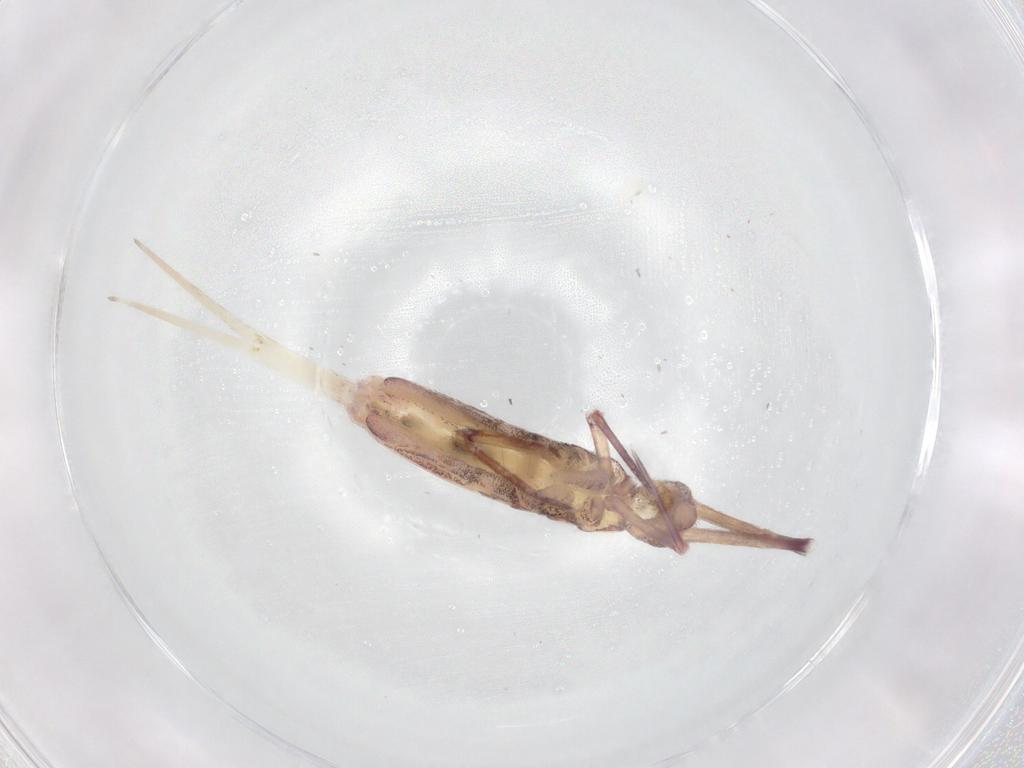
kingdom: Animalia
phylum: Arthropoda
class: Collembola
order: Entomobryomorpha
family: Entomobryidae
